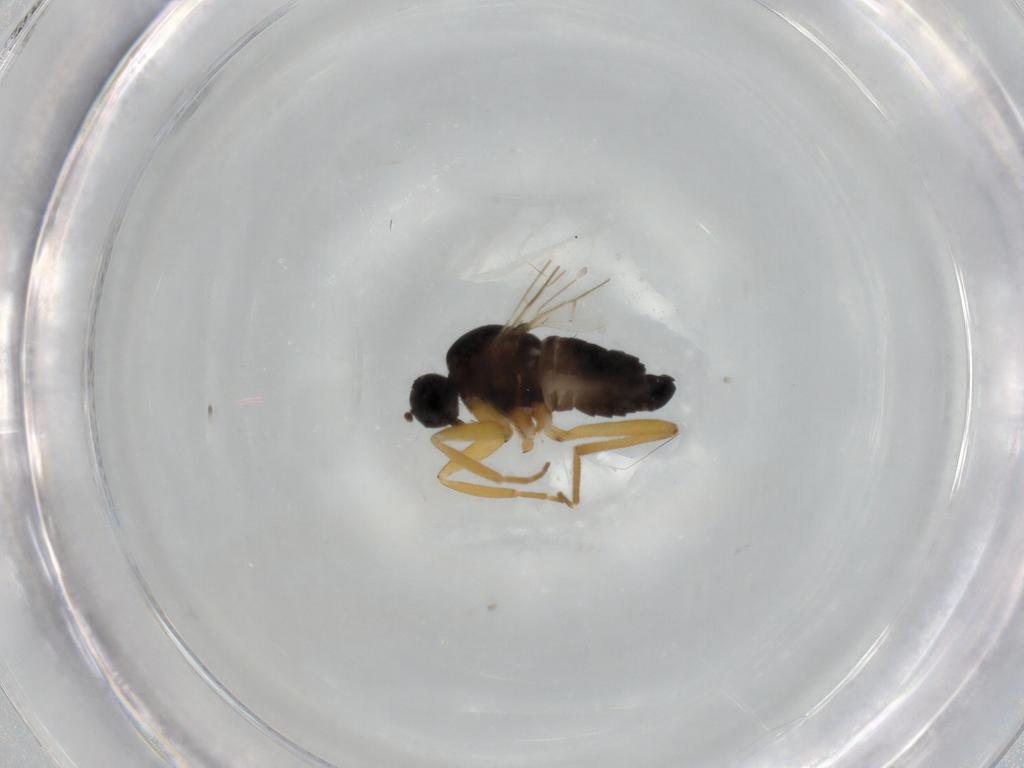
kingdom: Animalia
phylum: Arthropoda
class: Insecta
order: Diptera
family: Hybotidae
